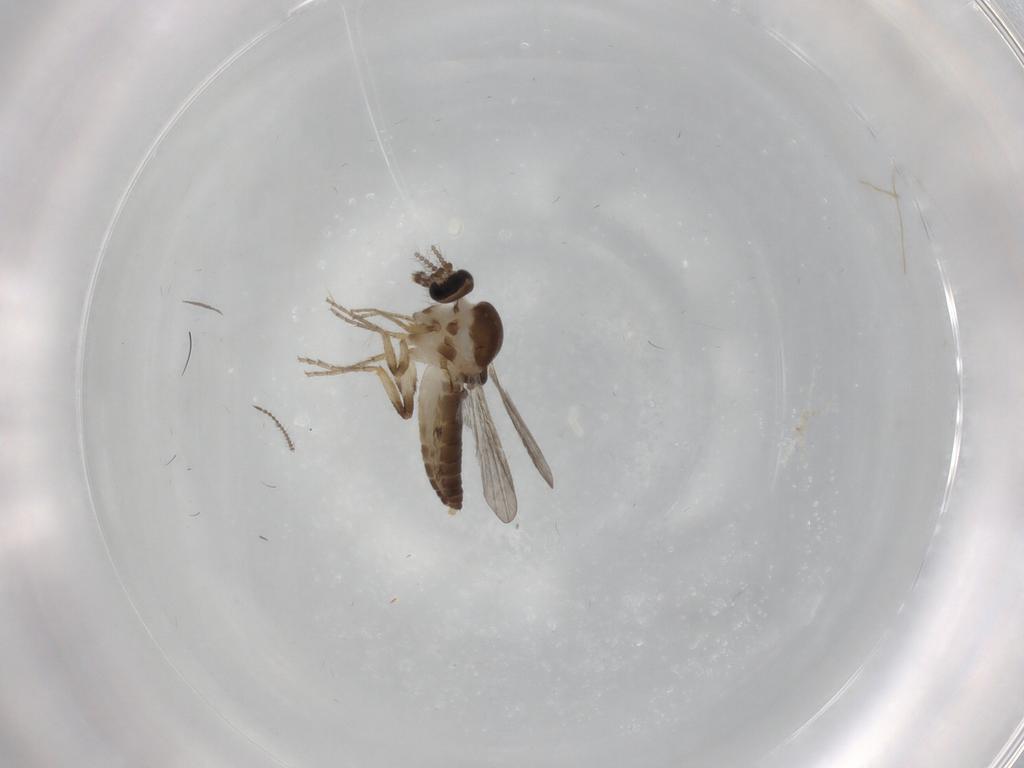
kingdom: Animalia
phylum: Arthropoda
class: Insecta
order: Diptera
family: Ceratopogonidae
